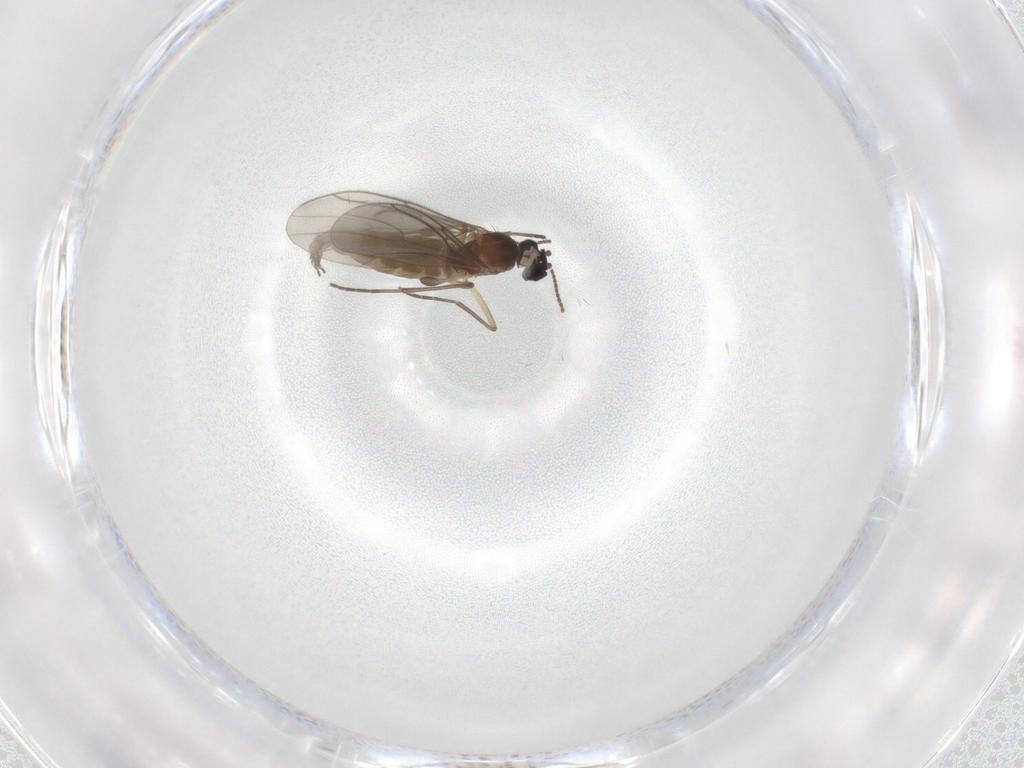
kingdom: Animalia
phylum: Arthropoda
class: Insecta
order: Diptera
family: Sciaridae
